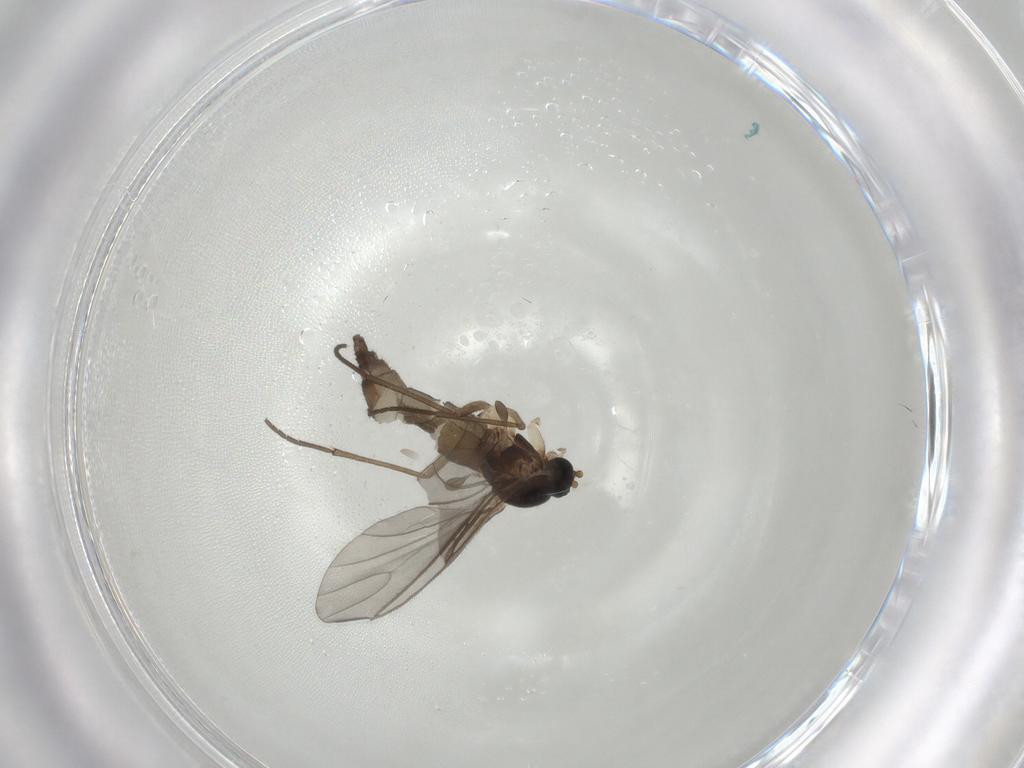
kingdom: Animalia
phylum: Arthropoda
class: Insecta
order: Diptera
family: Sciaridae
